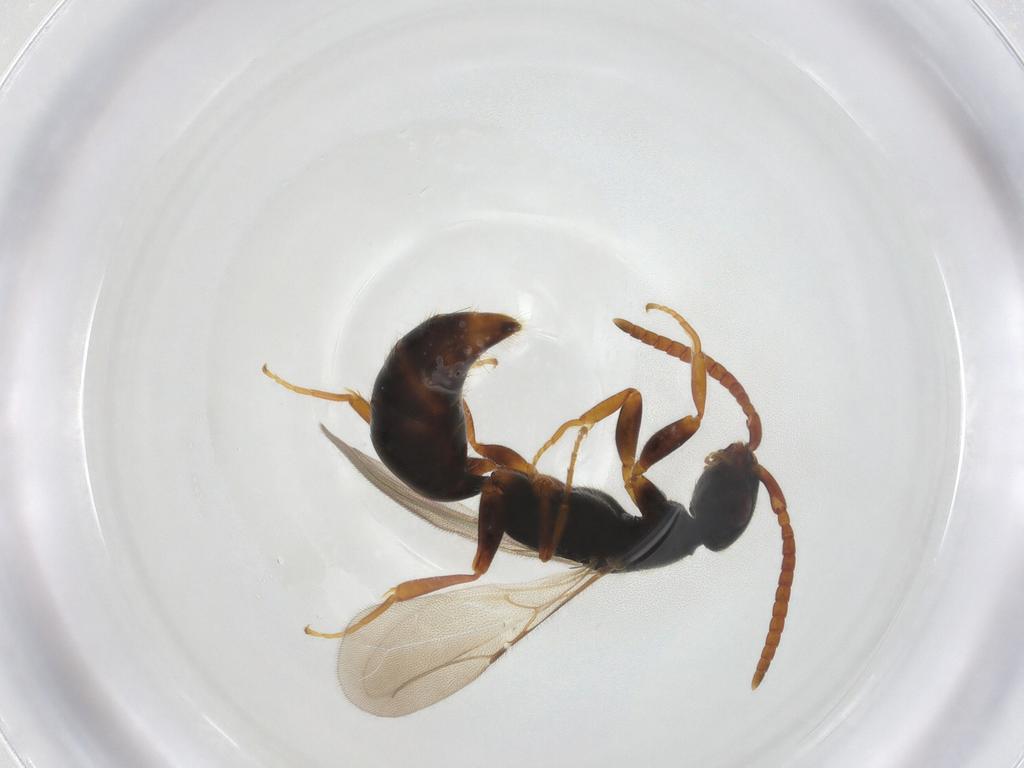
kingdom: Animalia
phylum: Arthropoda
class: Insecta
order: Hymenoptera
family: Bethylidae
